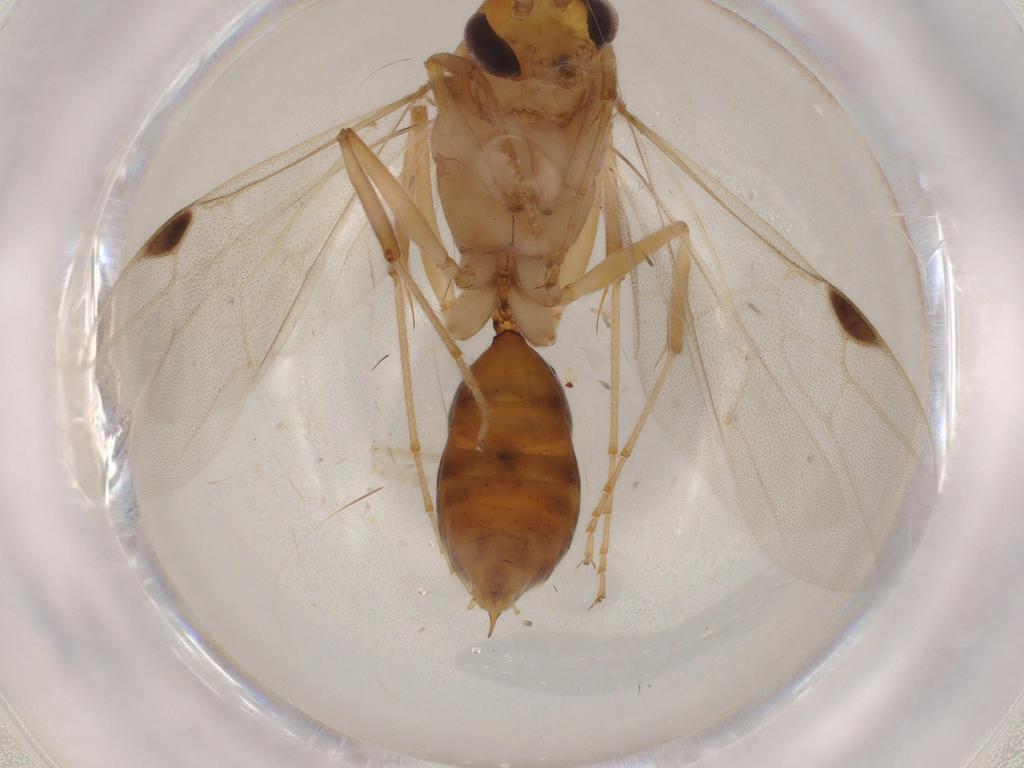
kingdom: Animalia
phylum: Arthropoda
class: Insecta
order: Hymenoptera
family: Formicidae
